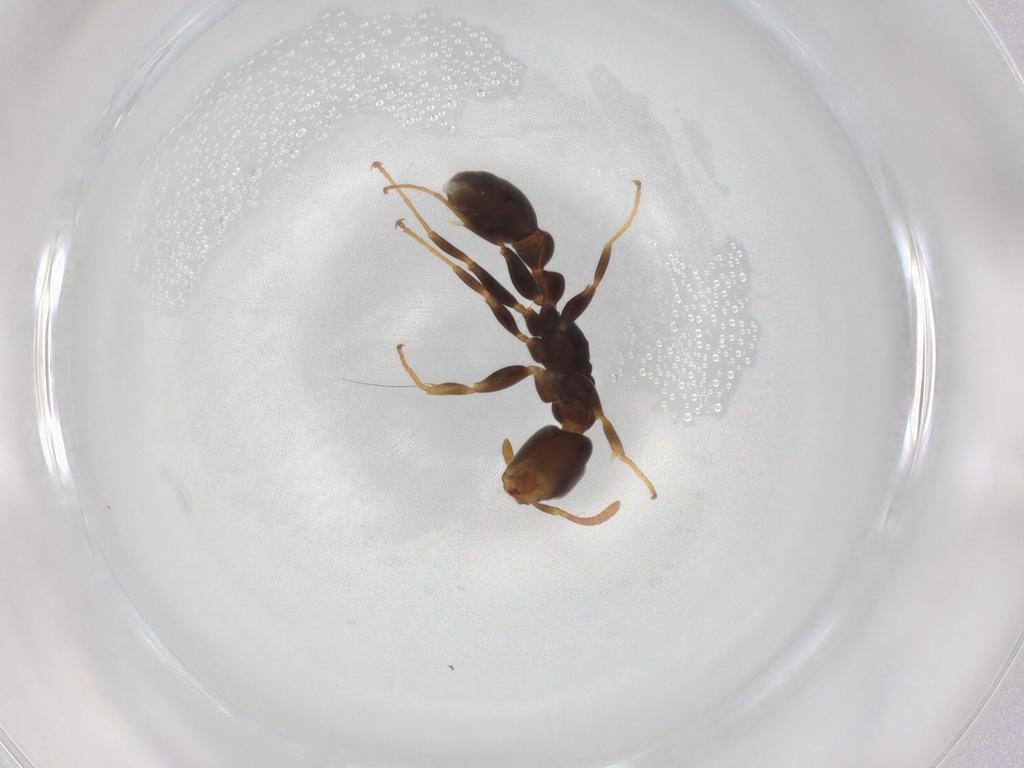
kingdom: Animalia
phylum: Arthropoda
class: Insecta
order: Hymenoptera
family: Formicidae
